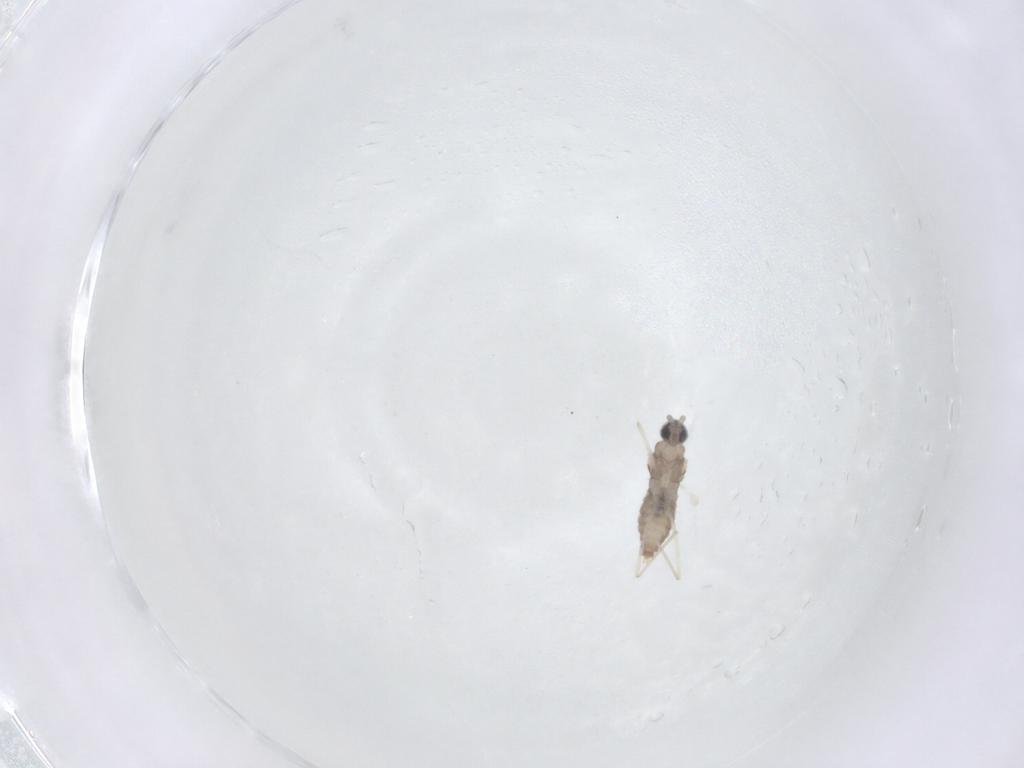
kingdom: Animalia
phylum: Arthropoda
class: Insecta
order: Diptera
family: Cecidomyiidae
